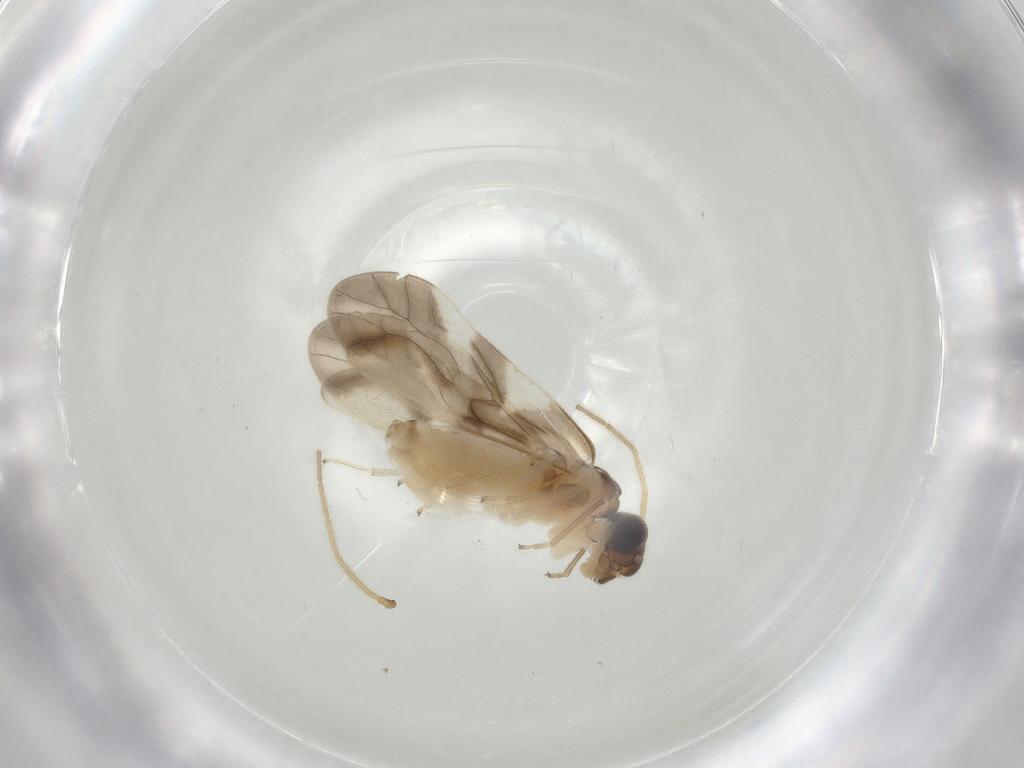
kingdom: Animalia
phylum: Arthropoda
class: Insecta
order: Psocodea
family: Caeciliusidae
